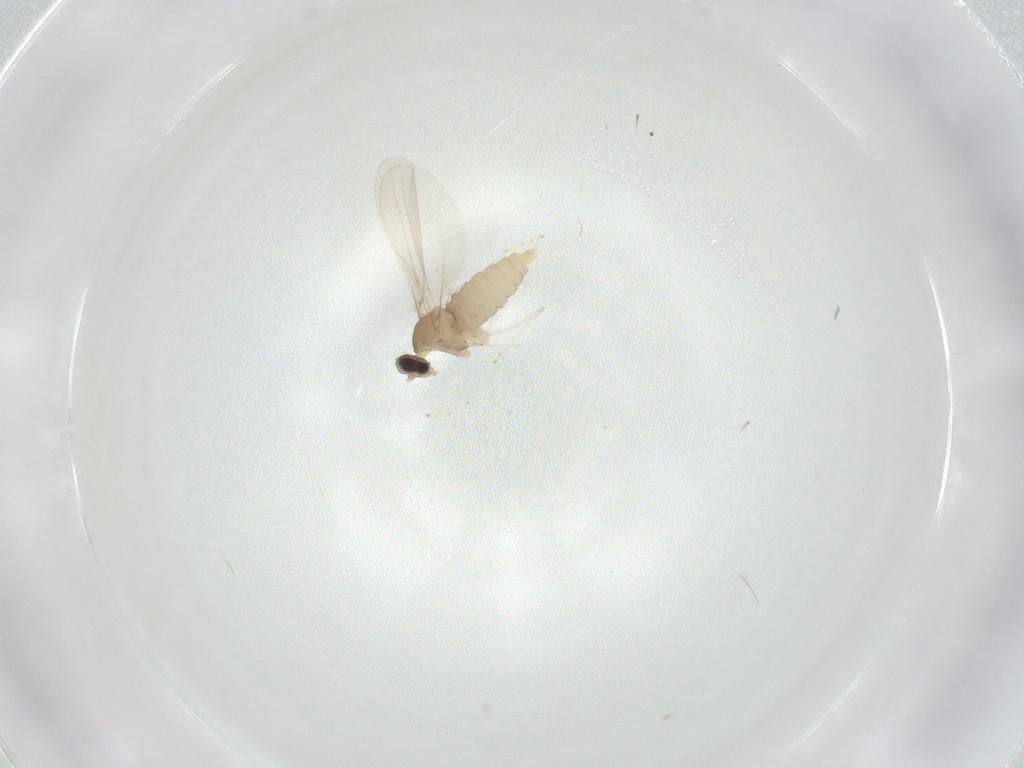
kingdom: Animalia
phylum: Arthropoda
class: Insecta
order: Diptera
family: Cecidomyiidae
